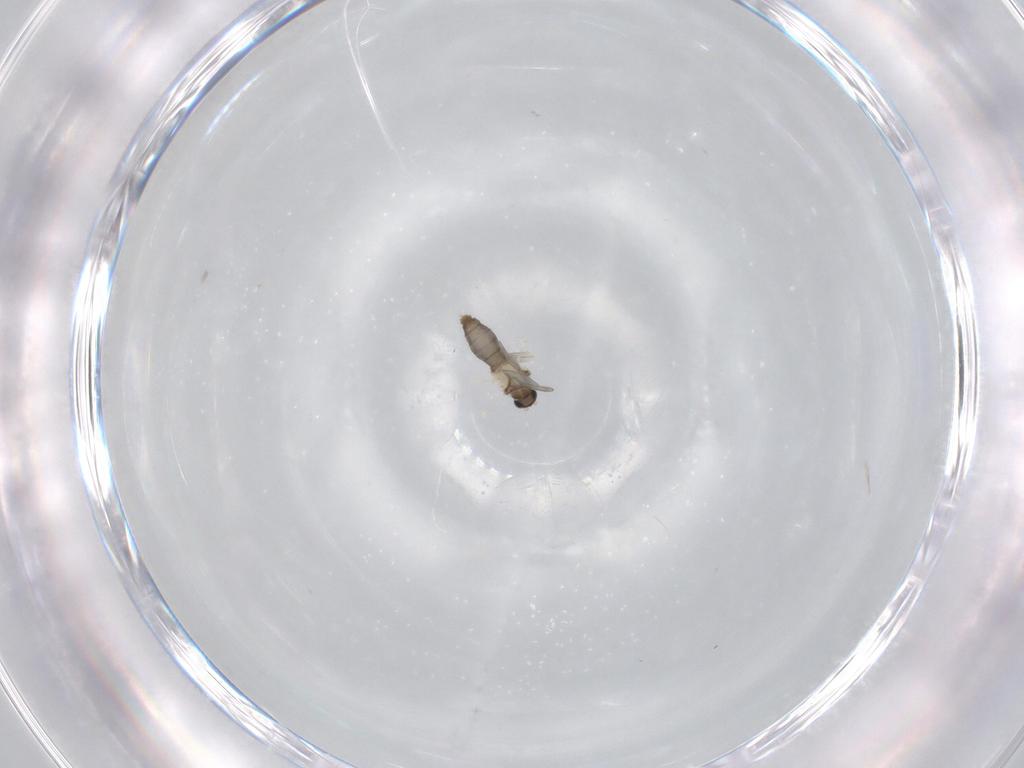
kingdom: Animalia
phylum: Arthropoda
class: Insecta
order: Diptera
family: Cecidomyiidae
